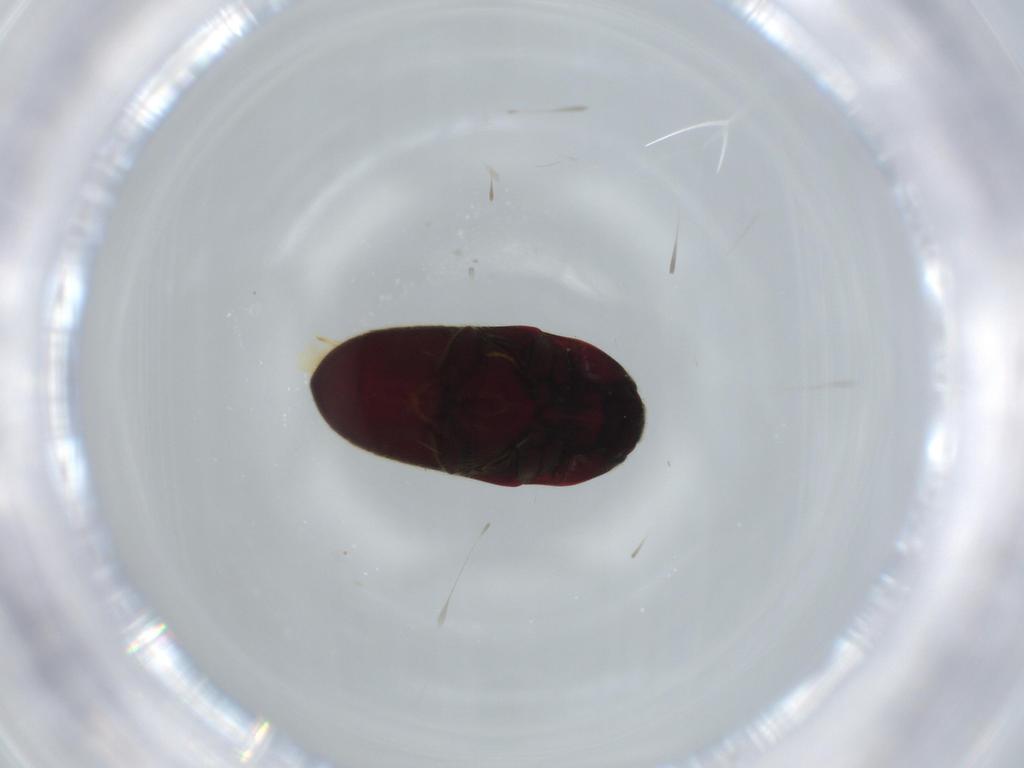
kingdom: Animalia
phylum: Arthropoda
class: Insecta
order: Coleoptera
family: Throscidae
